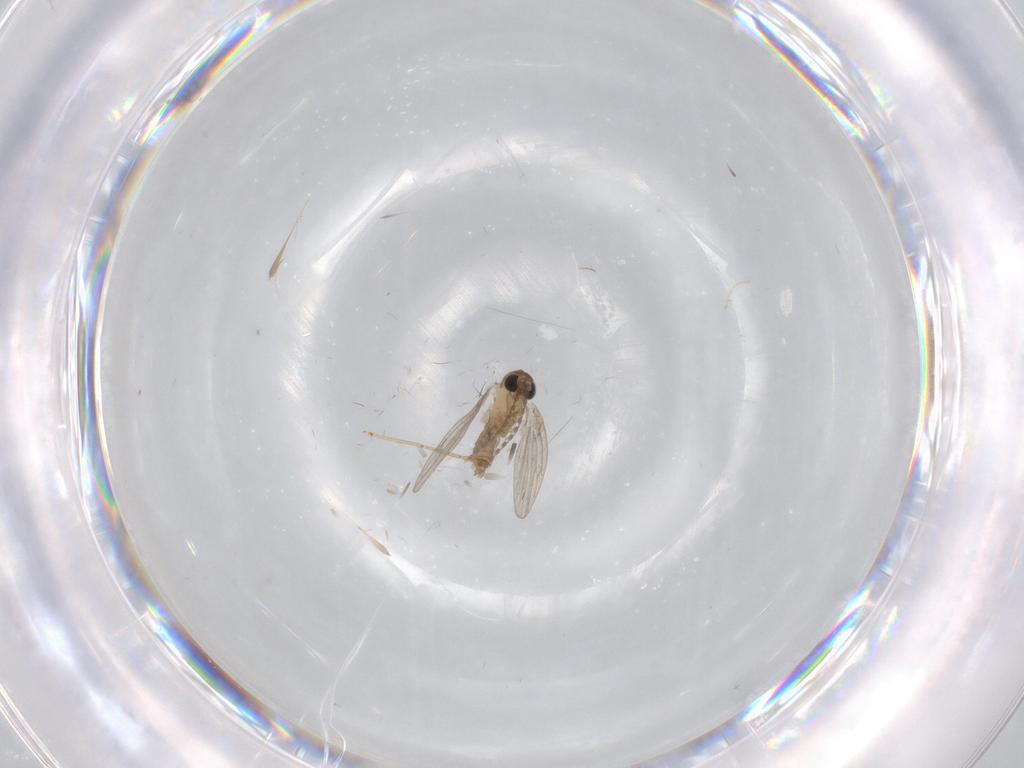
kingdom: Animalia
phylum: Arthropoda
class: Insecta
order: Diptera
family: Psychodidae
